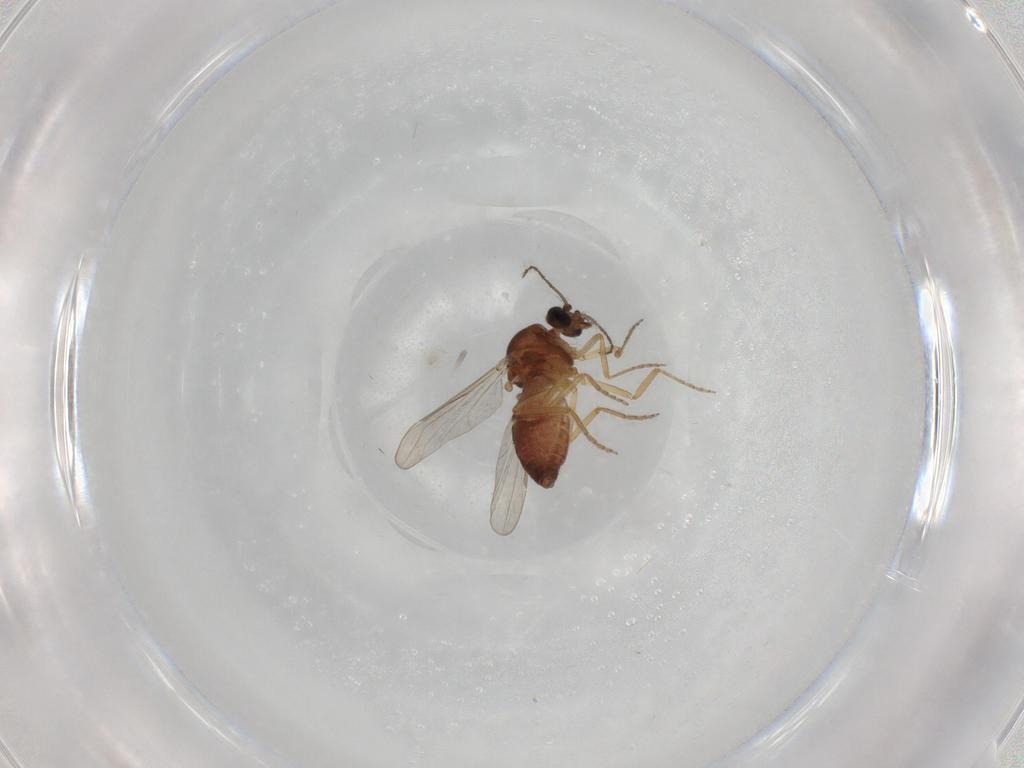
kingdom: Animalia
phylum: Arthropoda
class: Insecta
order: Diptera
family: Ceratopogonidae
